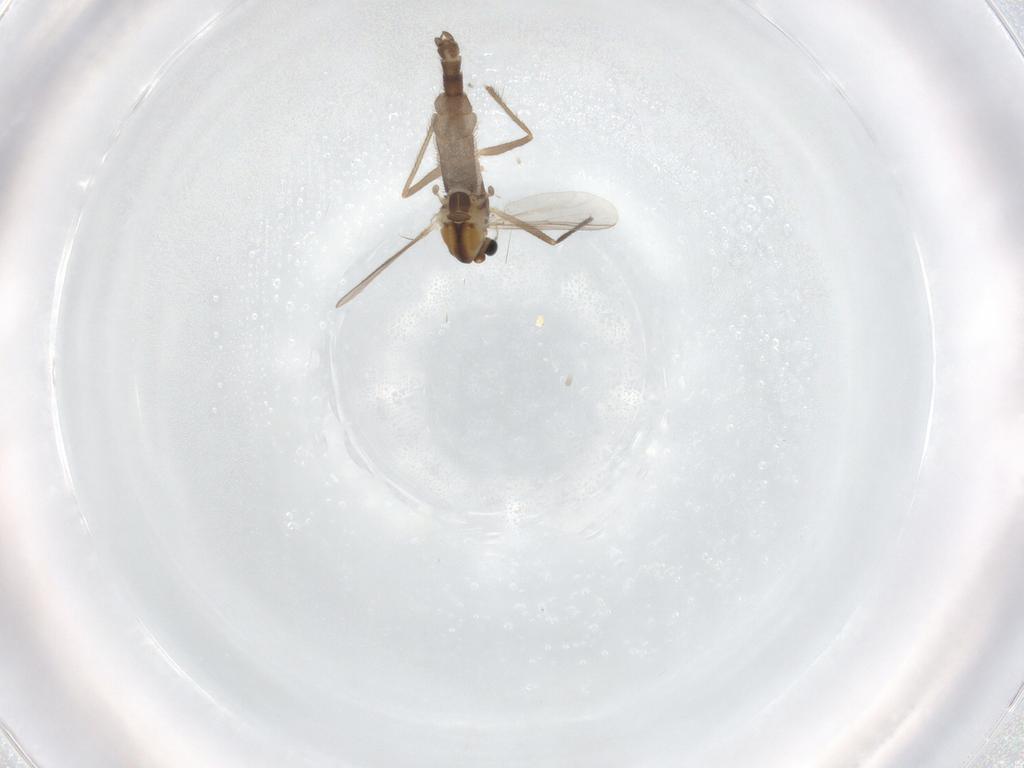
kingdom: Animalia
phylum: Arthropoda
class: Insecta
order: Diptera
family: Chironomidae
